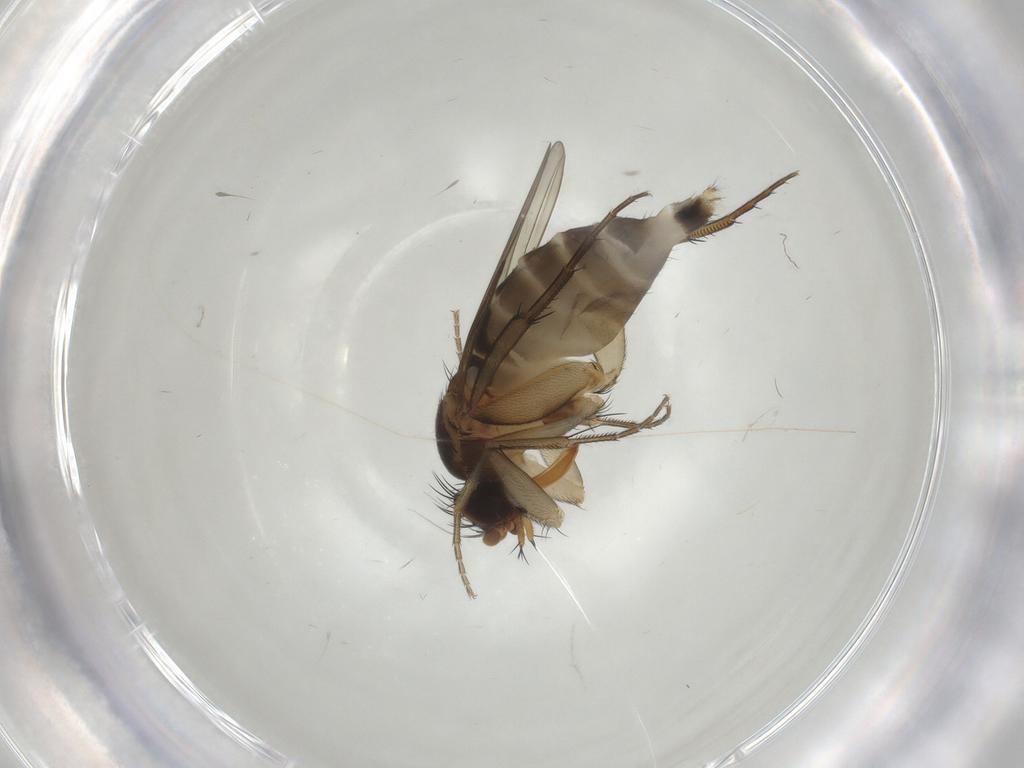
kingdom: Animalia
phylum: Arthropoda
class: Insecta
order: Diptera
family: Phoridae
